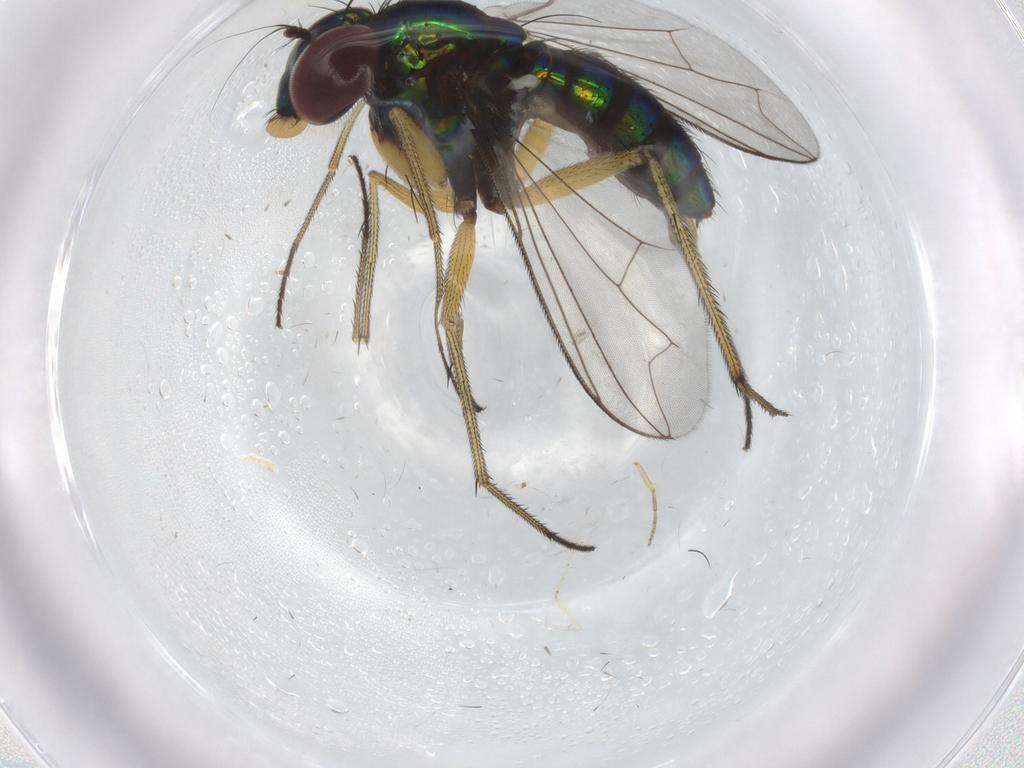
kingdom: Animalia
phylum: Arthropoda
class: Insecta
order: Diptera
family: Dolichopodidae
